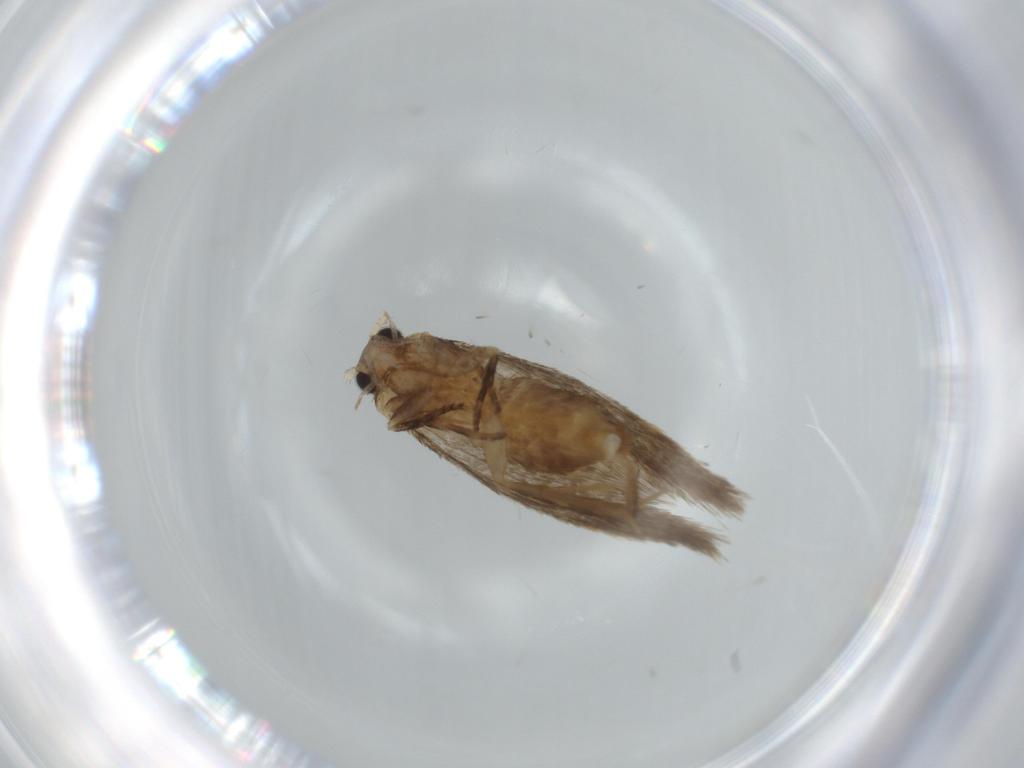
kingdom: Animalia
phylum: Arthropoda
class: Insecta
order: Lepidoptera
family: Tineidae
